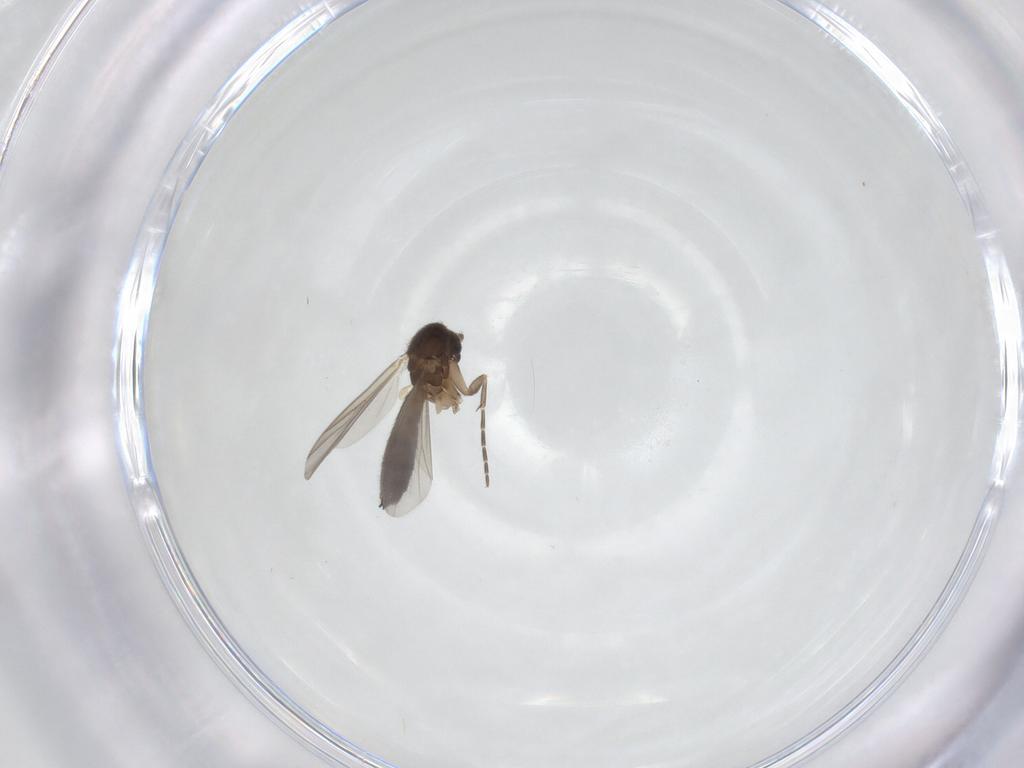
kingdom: Animalia
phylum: Arthropoda
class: Insecta
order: Diptera
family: Mycetophilidae
